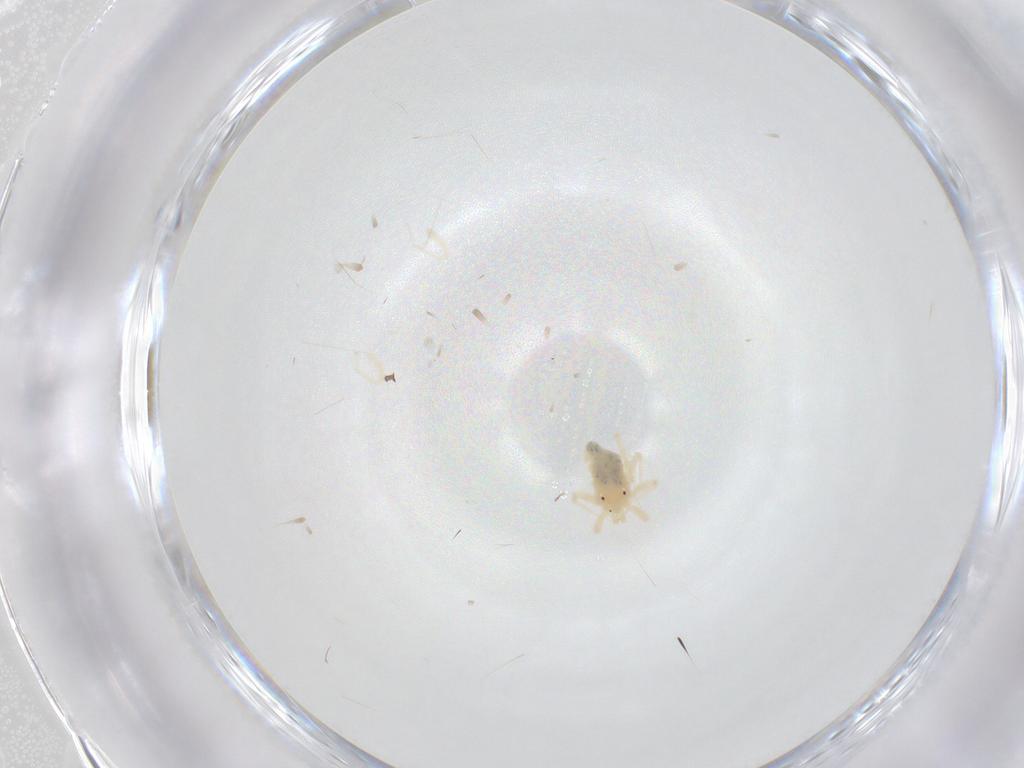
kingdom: Animalia
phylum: Arthropoda
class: Arachnida
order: Trombidiformes
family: Anystidae
